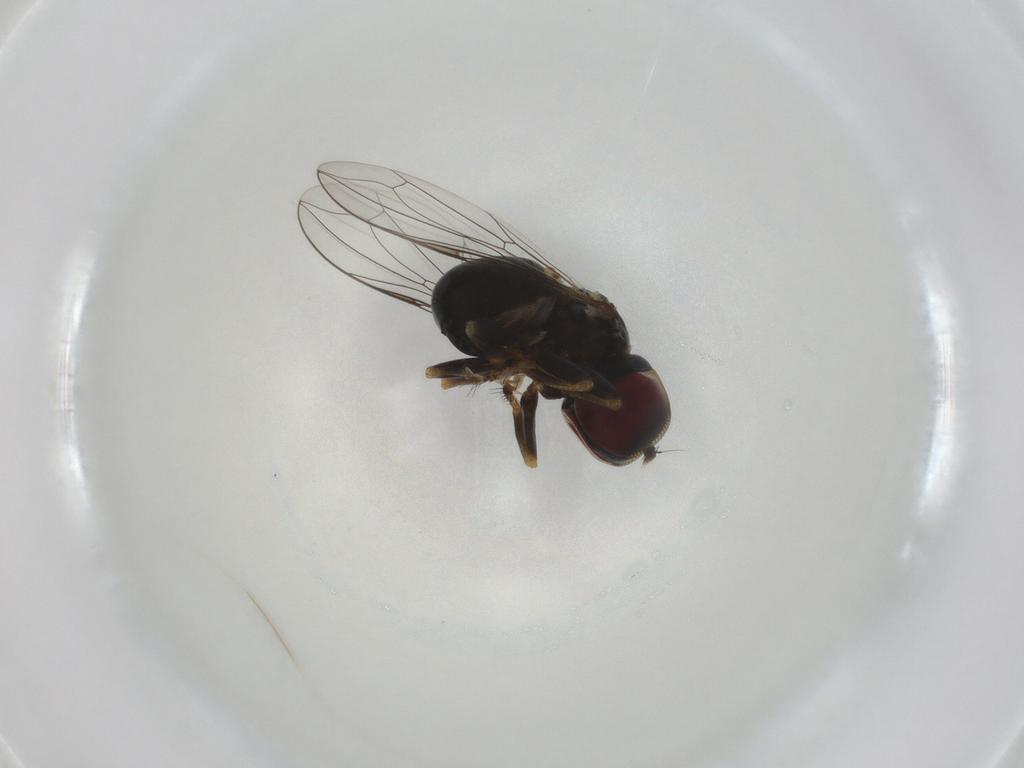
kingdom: Animalia
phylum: Arthropoda
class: Insecta
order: Diptera
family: Pipunculidae
